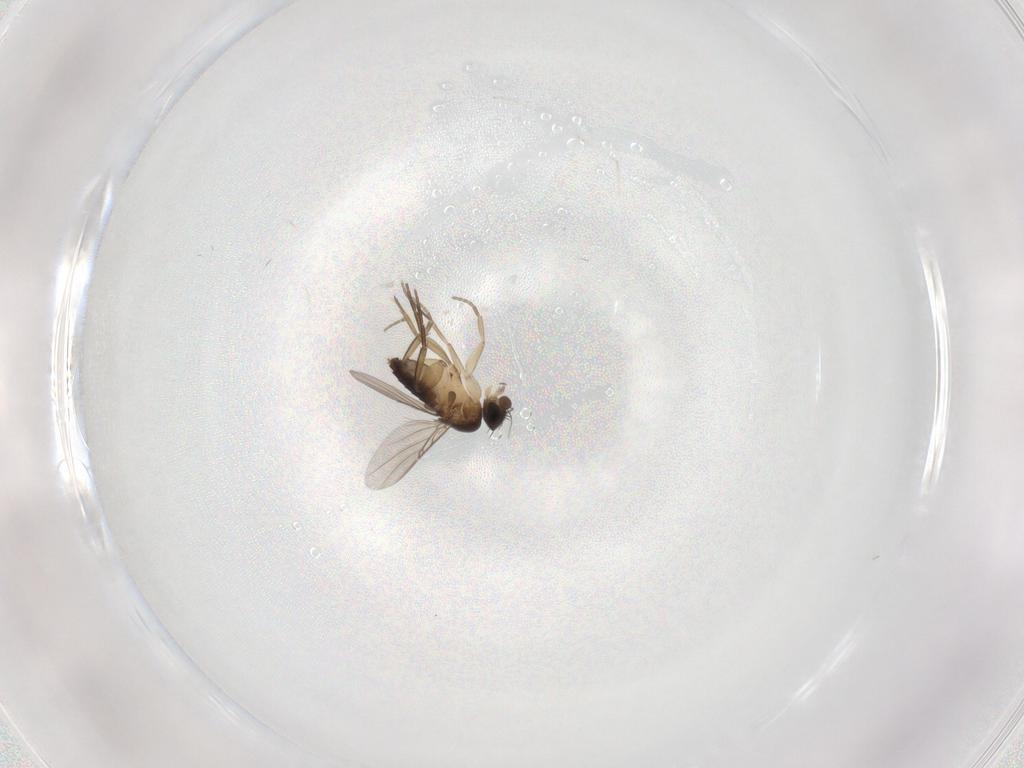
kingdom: Animalia
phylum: Arthropoda
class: Insecta
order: Diptera
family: Phoridae
